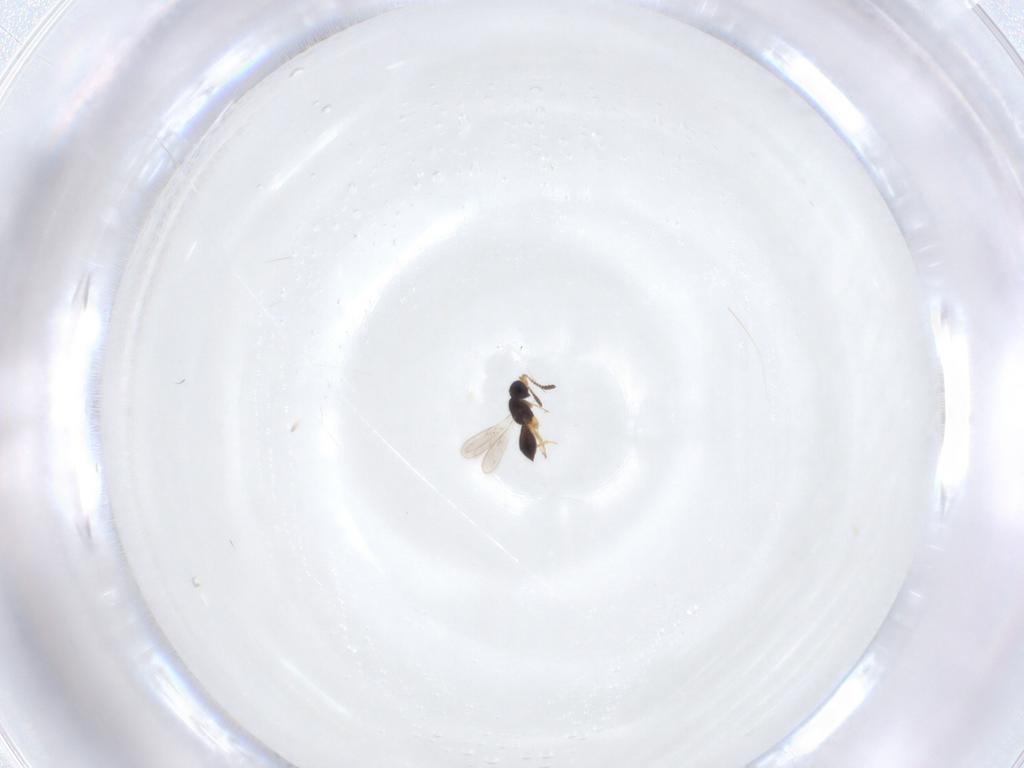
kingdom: Animalia
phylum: Arthropoda
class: Insecta
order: Hymenoptera
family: Scelionidae
